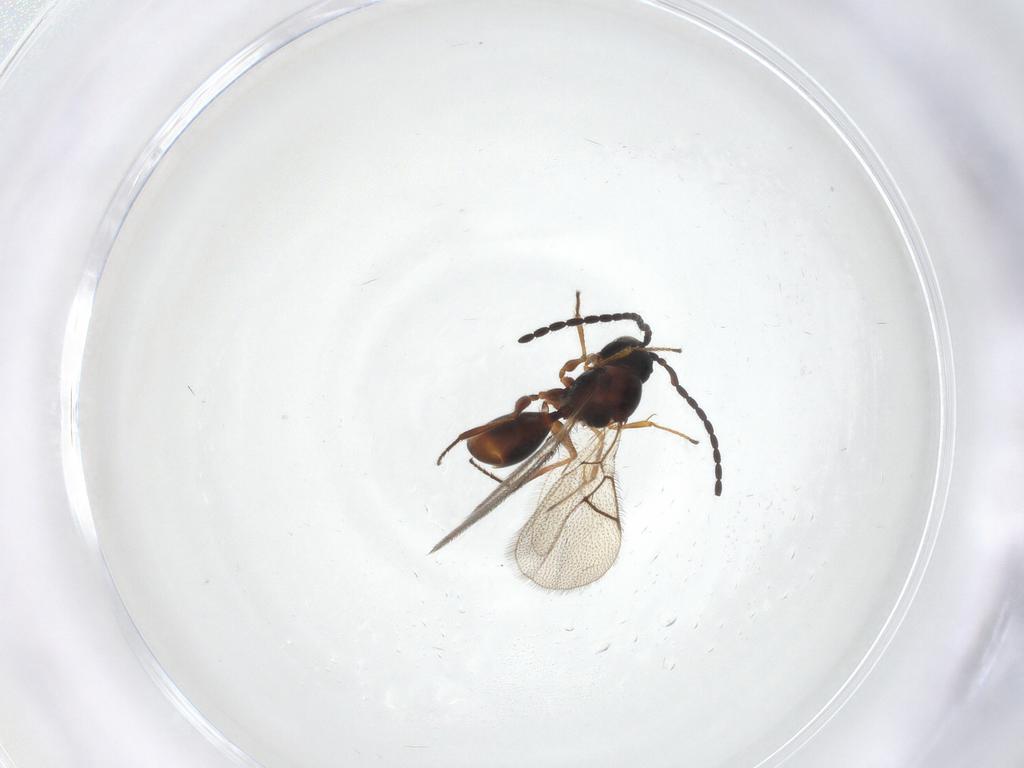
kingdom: Animalia
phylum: Arthropoda
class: Insecta
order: Hymenoptera
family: Figitidae
